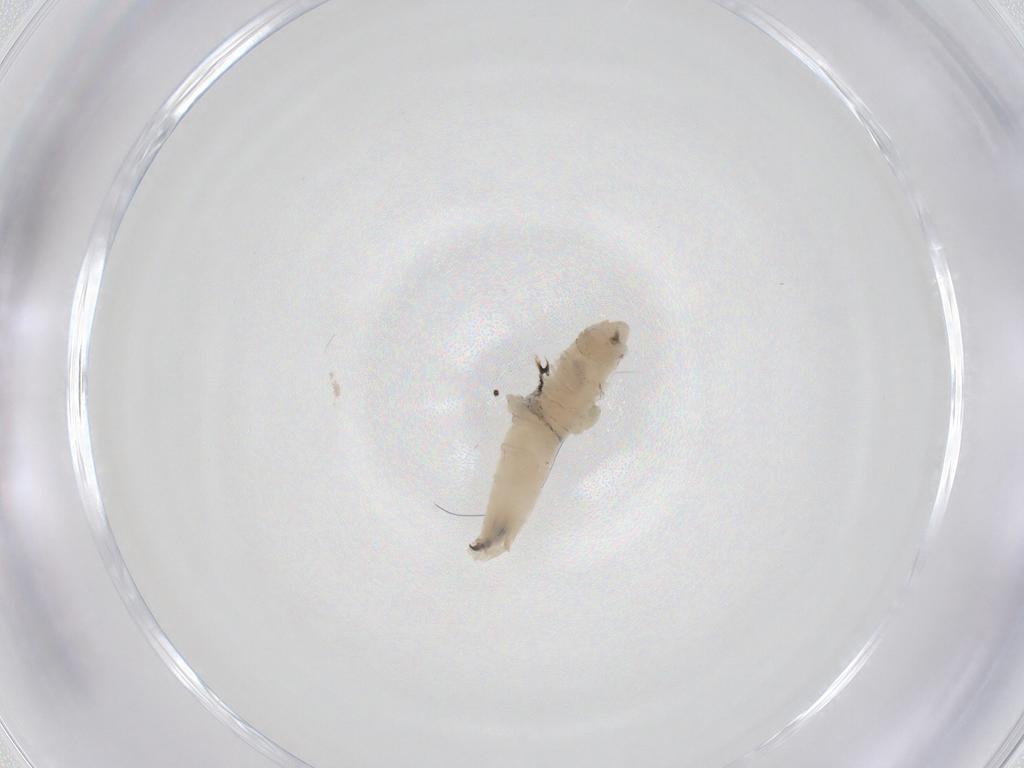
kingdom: Animalia
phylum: Arthropoda
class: Insecta
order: Diptera
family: Chironomidae
